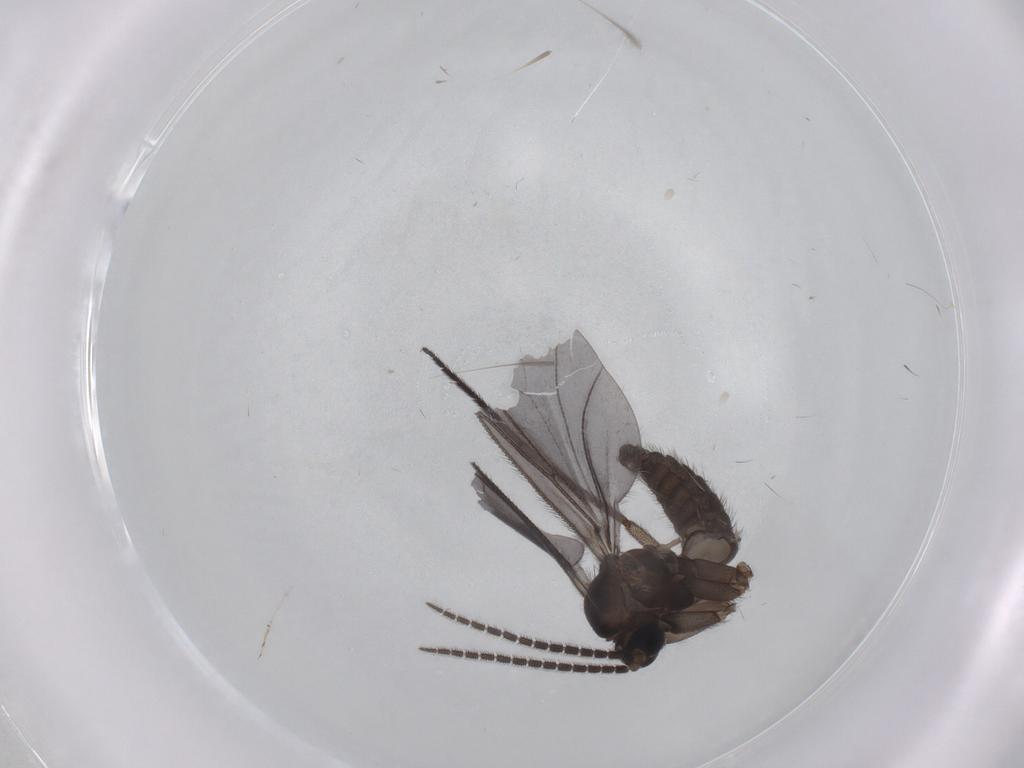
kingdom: Animalia
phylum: Arthropoda
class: Insecta
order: Diptera
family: Sciaridae
